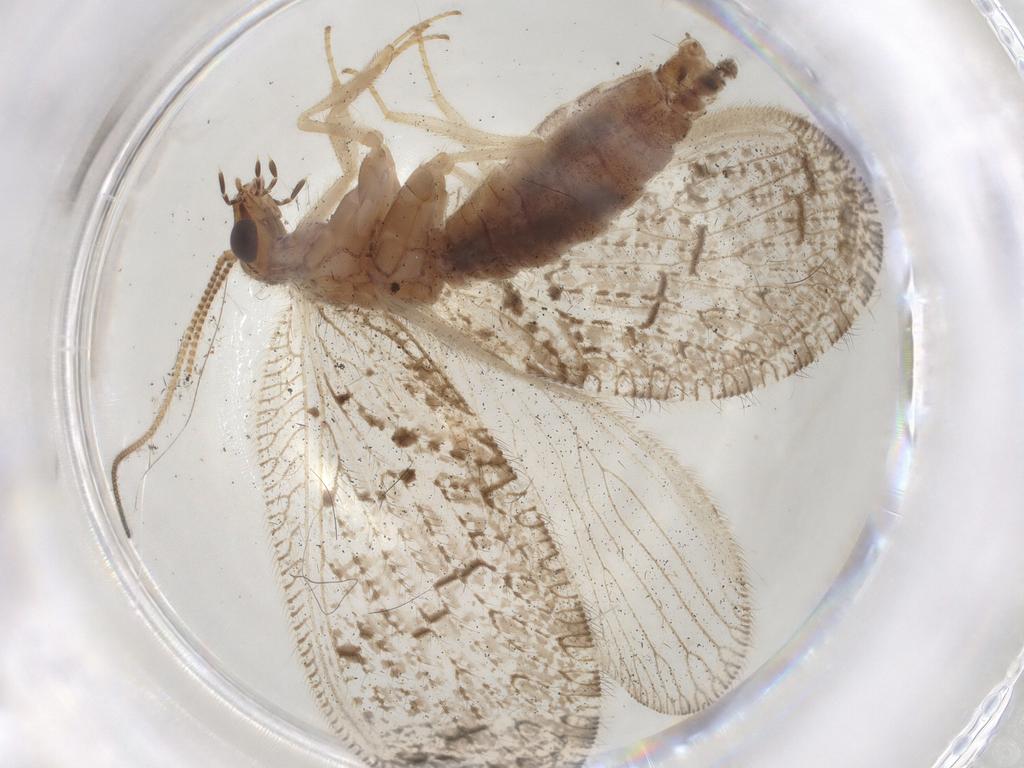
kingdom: Animalia
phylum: Arthropoda
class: Insecta
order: Neuroptera
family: Hemerobiidae
